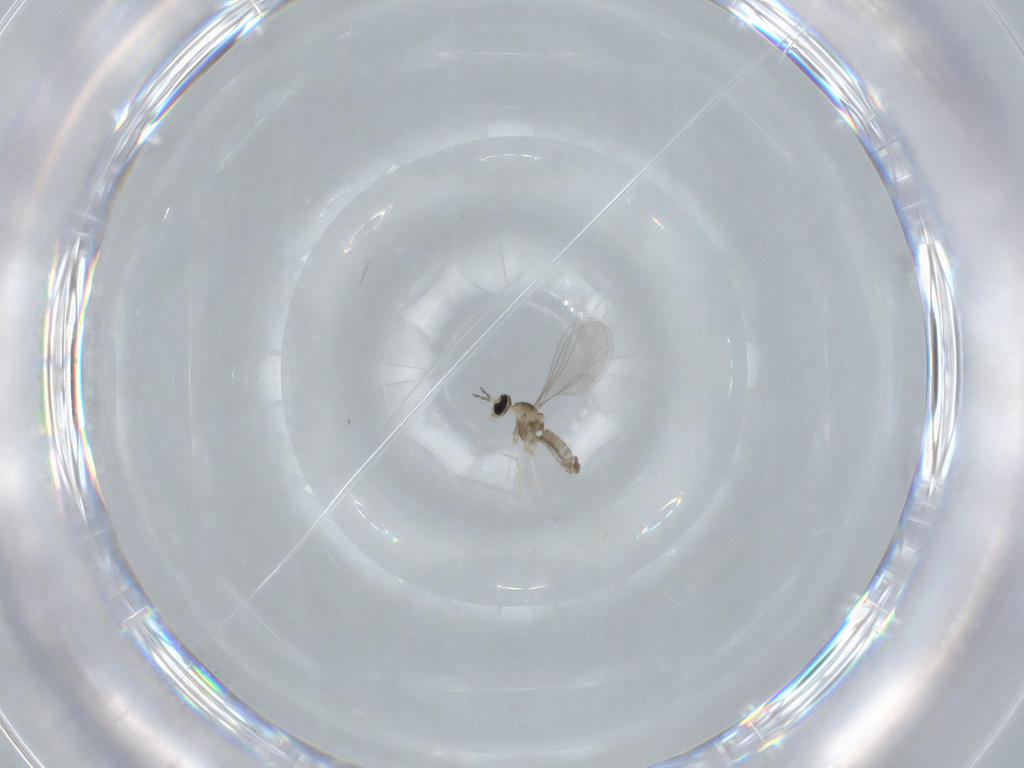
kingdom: Animalia
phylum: Arthropoda
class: Insecta
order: Diptera
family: Cecidomyiidae
